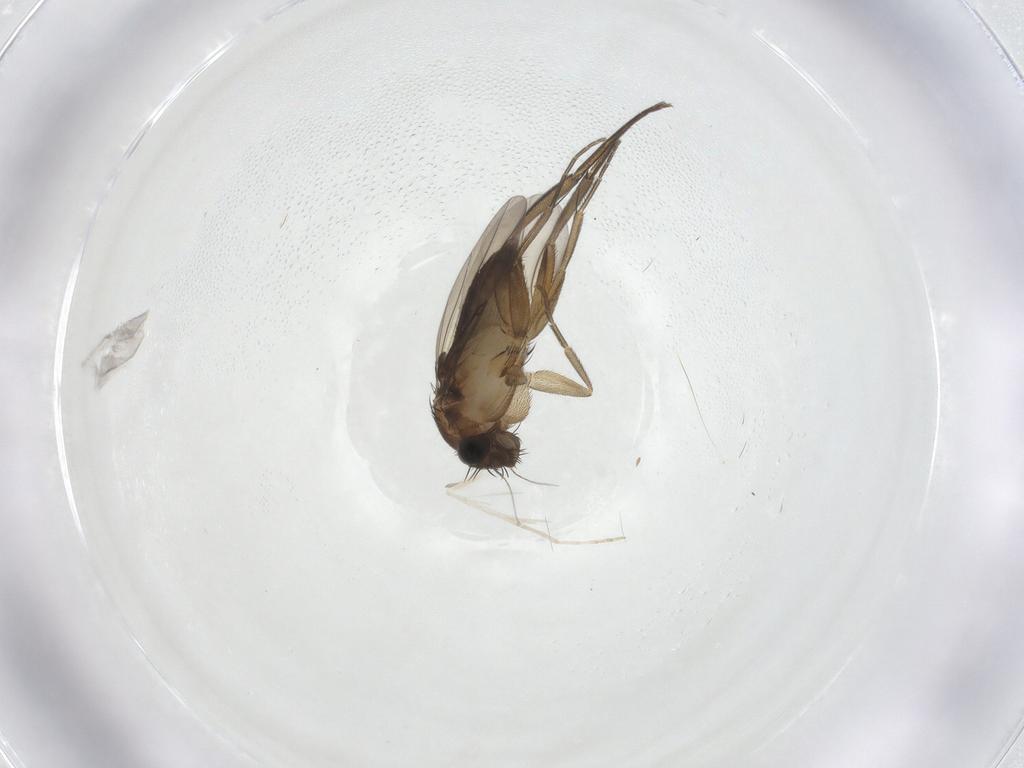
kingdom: Animalia
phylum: Arthropoda
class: Insecta
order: Diptera
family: Phoridae
